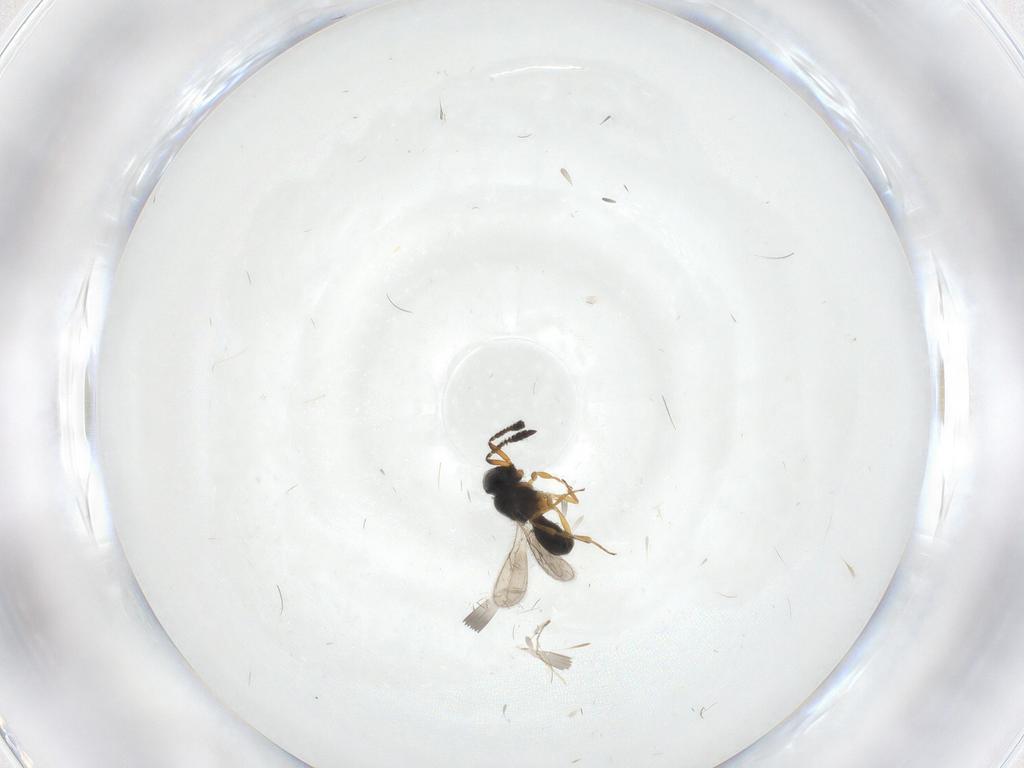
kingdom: Animalia
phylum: Arthropoda
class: Insecta
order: Hymenoptera
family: Scelionidae
